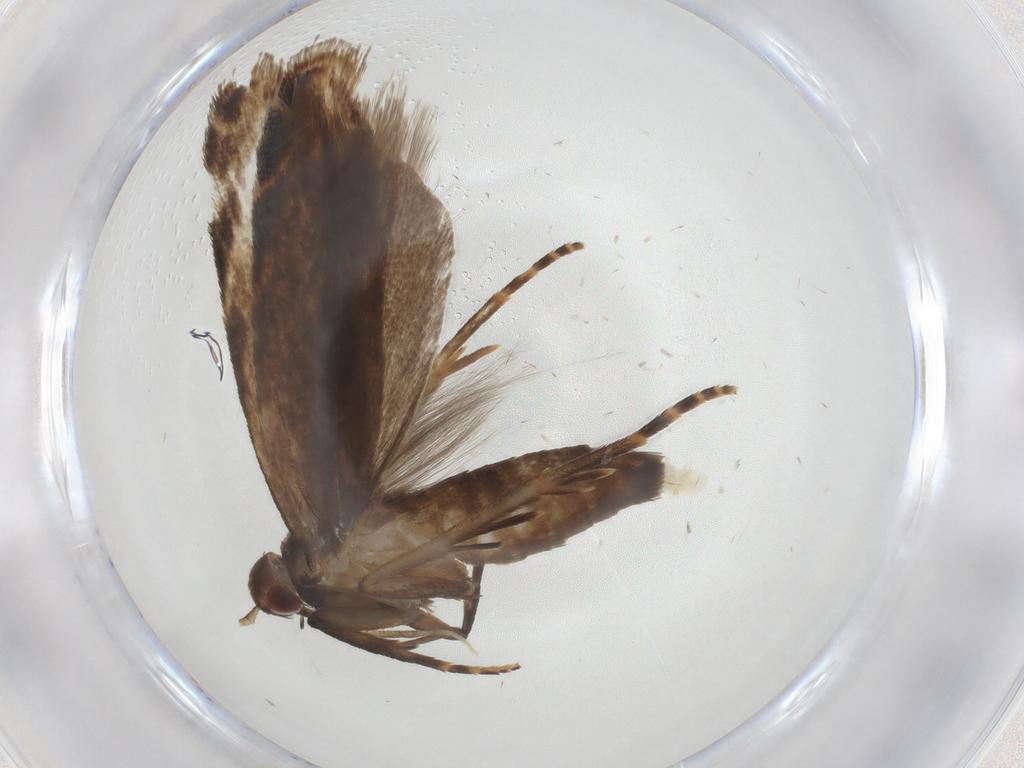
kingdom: Animalia
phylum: Arthropoda
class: Insecta
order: Lepidoptera
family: Gelechiidae
